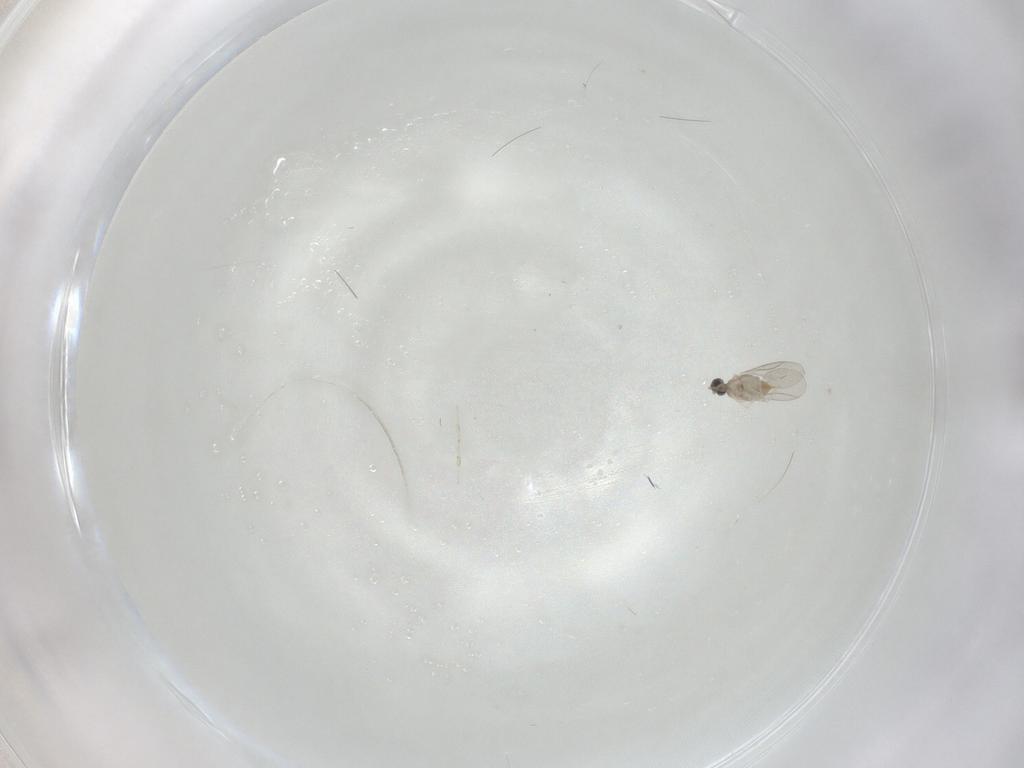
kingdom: Animalia
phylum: Arthropoda
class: Insecta
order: Diptera
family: Cecidomyiidae
